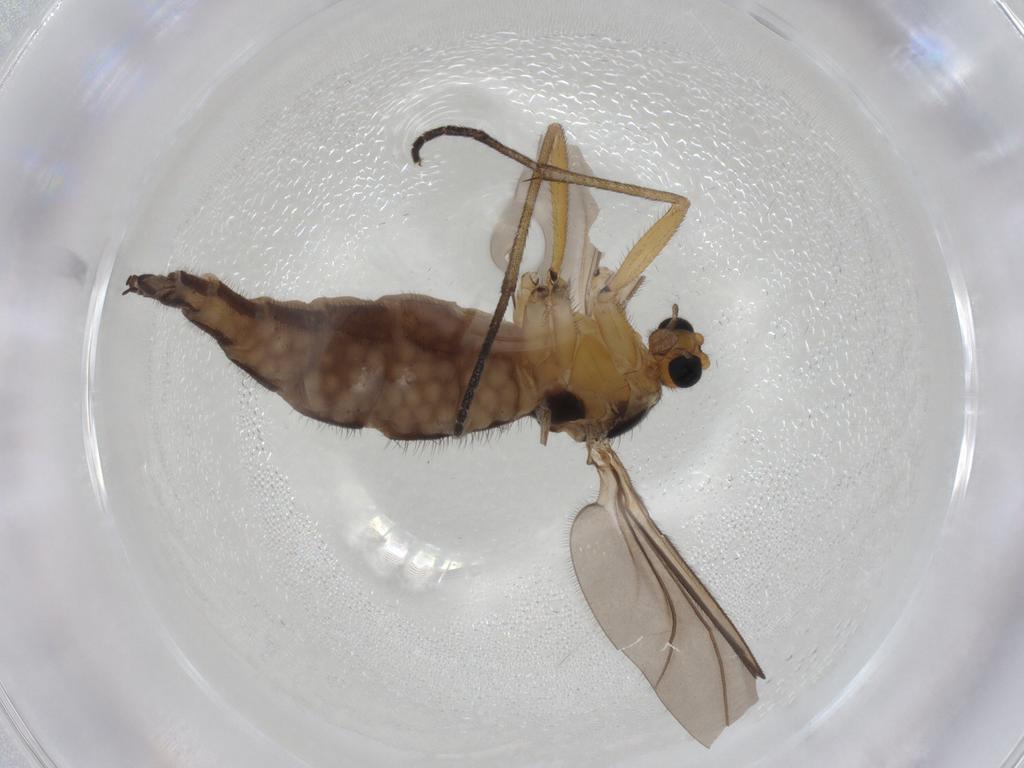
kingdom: Animalia
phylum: Arthropoda
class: Insecta
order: Diptera
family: Sciaridae
